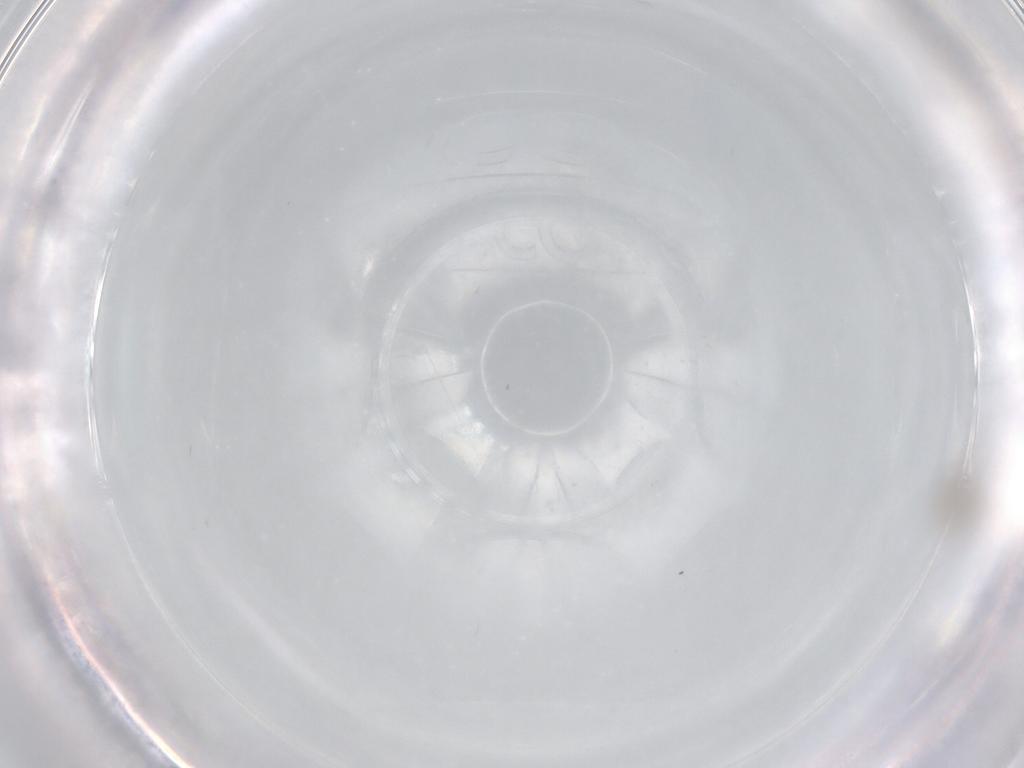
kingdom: Animalia
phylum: Arthropoda
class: Insecta
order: Diptera
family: Cecidomyiidae
